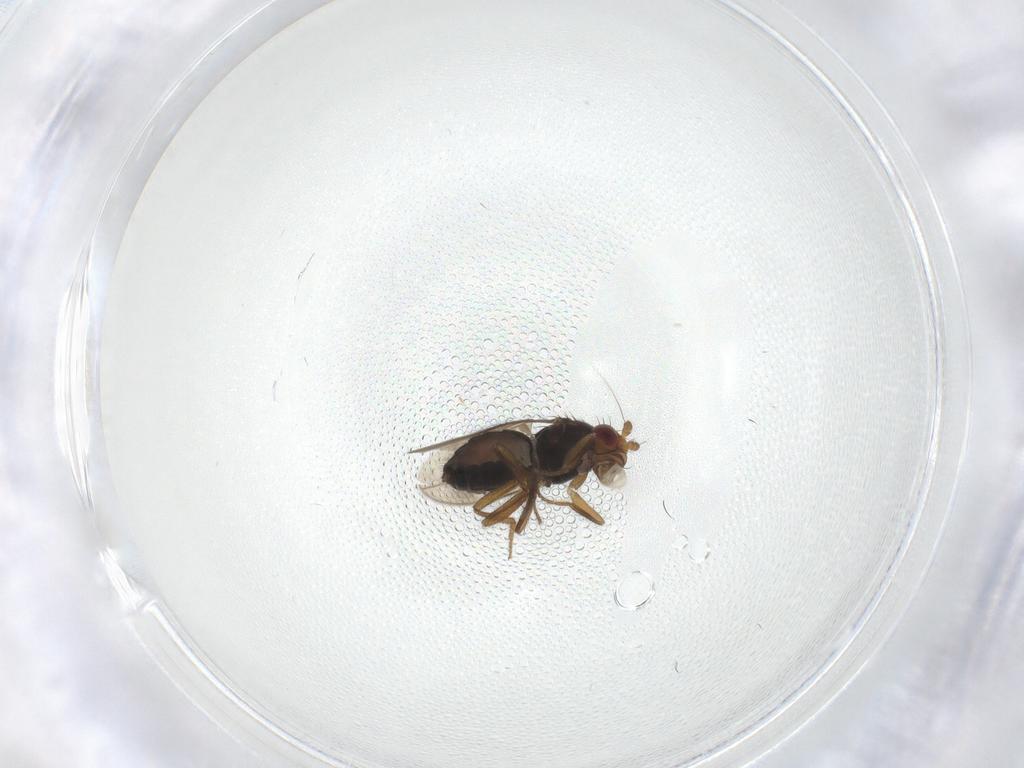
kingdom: Animalia
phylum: Arthropoda
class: Insecta
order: Diptera
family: Sphaeroceridae
